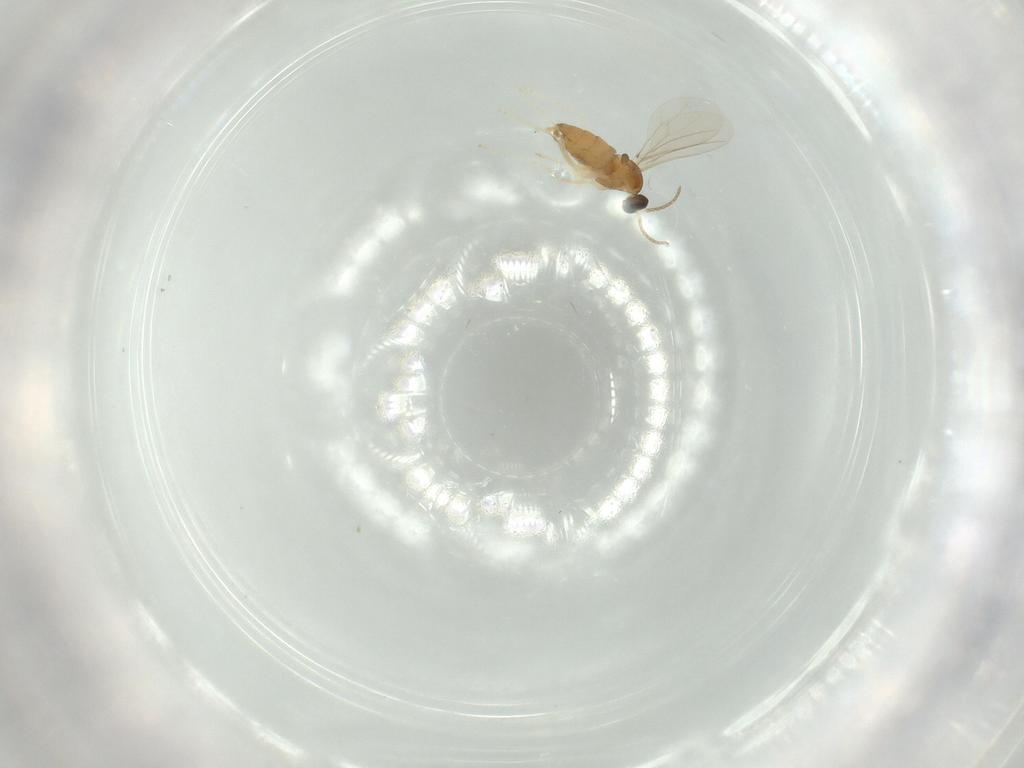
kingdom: Animalia
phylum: Arthropoda
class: Insecta
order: Diptera
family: Cecidomyiidae
